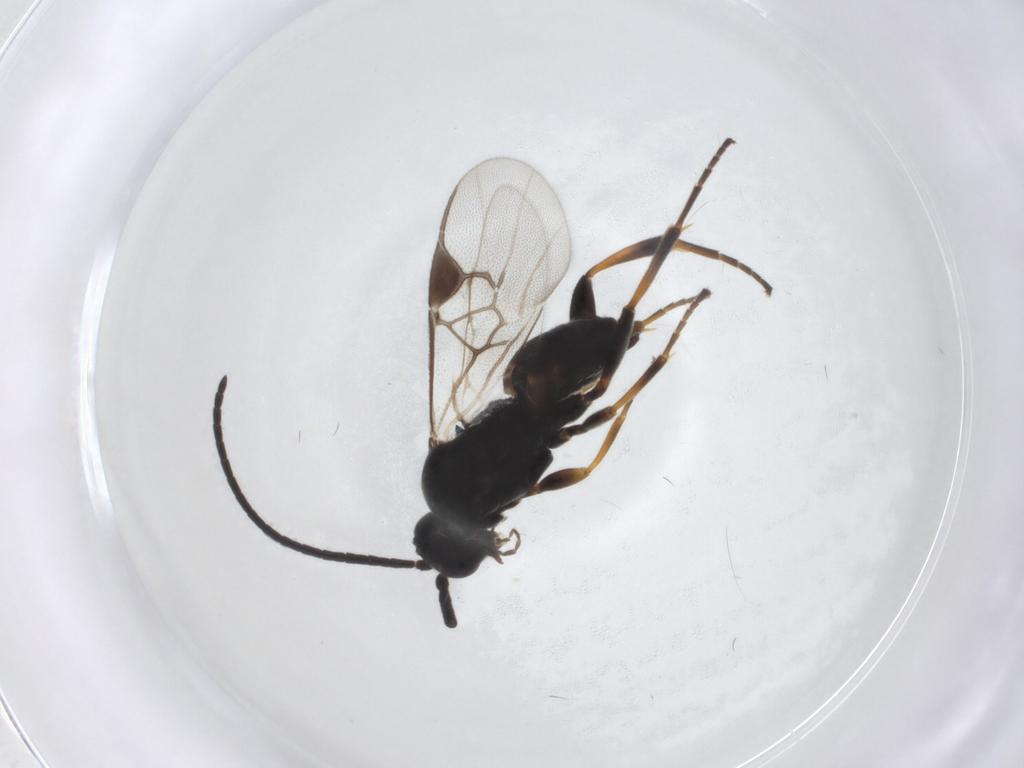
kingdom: Animalia
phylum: Arthropoda
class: Insecta
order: Hymenoptera
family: Braconidae
